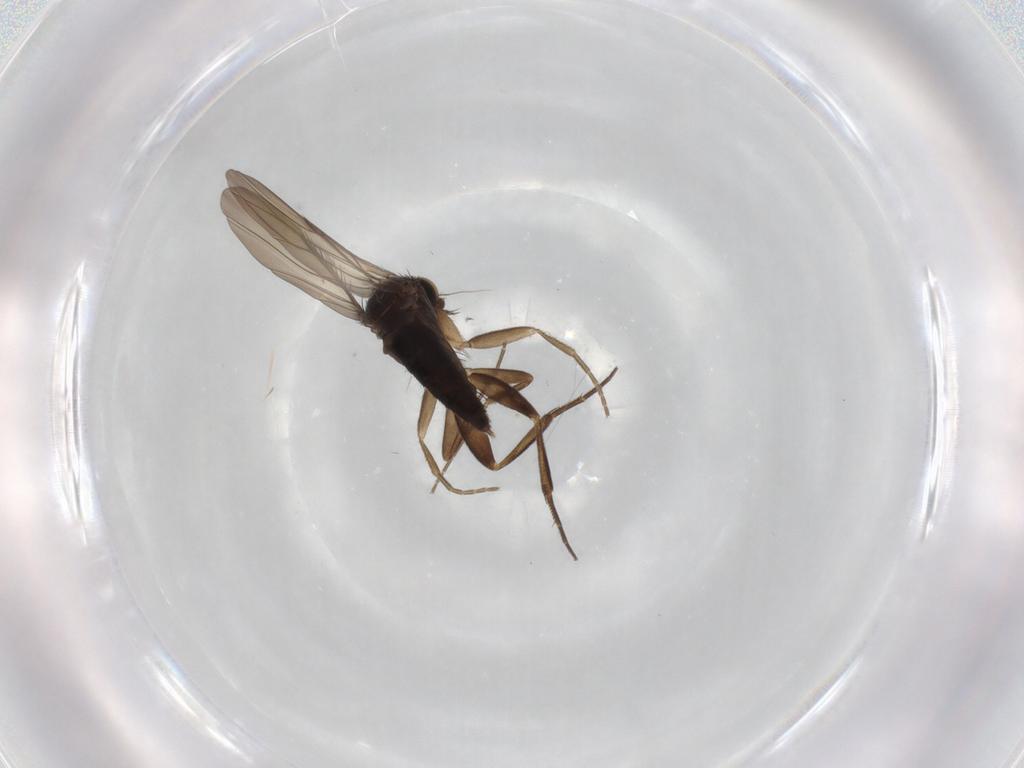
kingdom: Animalia
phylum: Arthropoda
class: Insecta
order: Diptera
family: Phoridae
